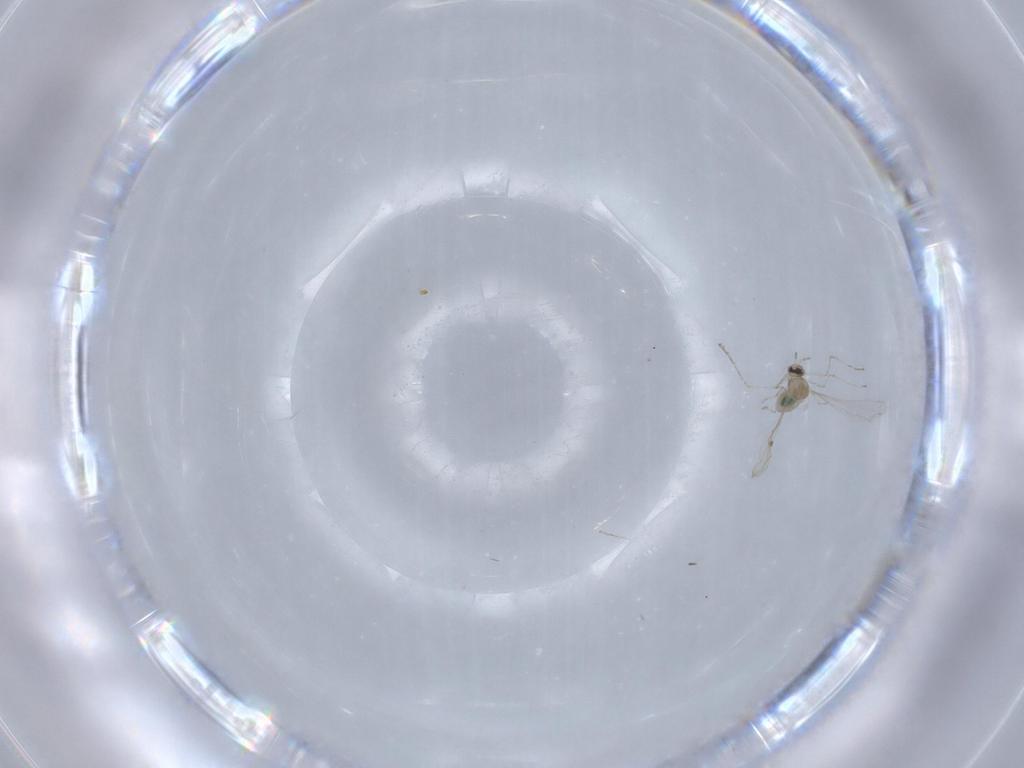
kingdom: Animalia
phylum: Arthropoda
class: Insecta
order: Diptera
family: Cecidomyiidae
